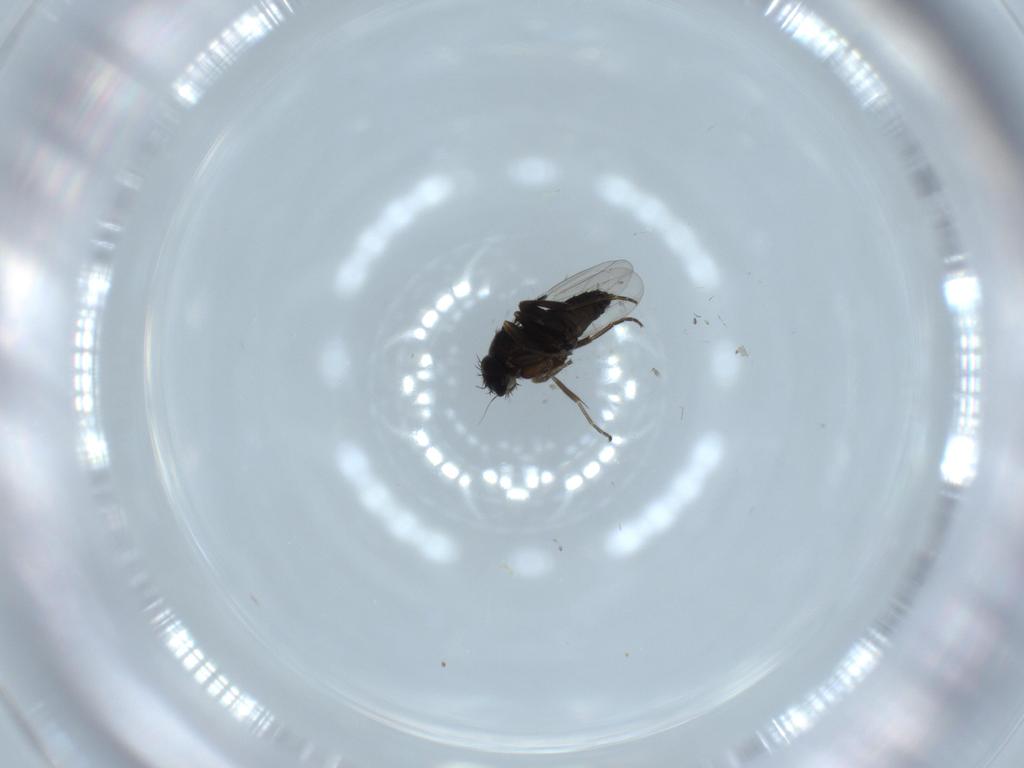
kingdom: Animalia
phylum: Arthropoda
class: Insecta
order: Diptera
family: Phoridae
